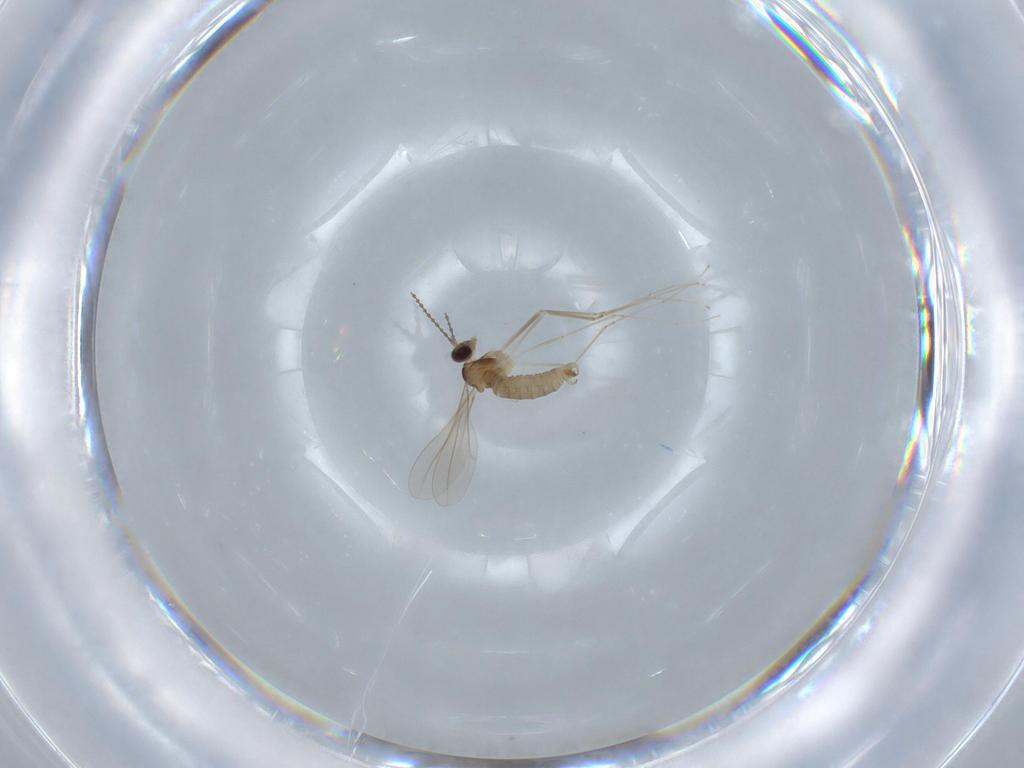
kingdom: Animalia
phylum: Arthropoda
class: Insecta
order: Diptera
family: Cecidomyiidae
